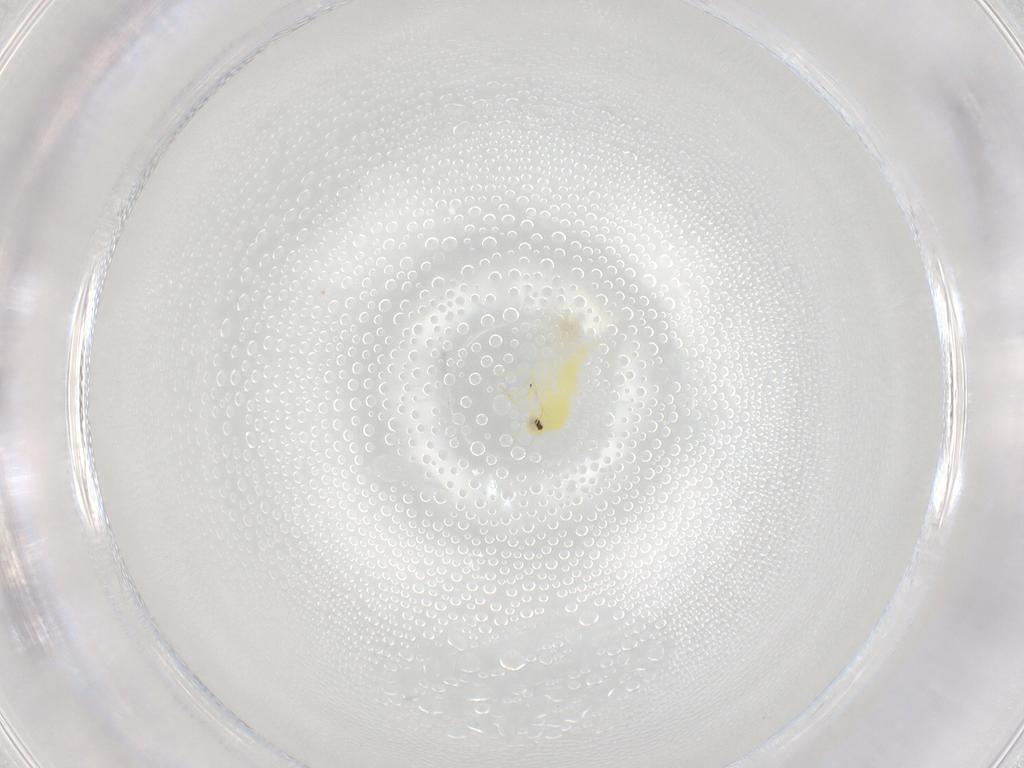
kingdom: Animalia
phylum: Arthropoda
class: Insecta
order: Hemiptera
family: Aleyrodidae
